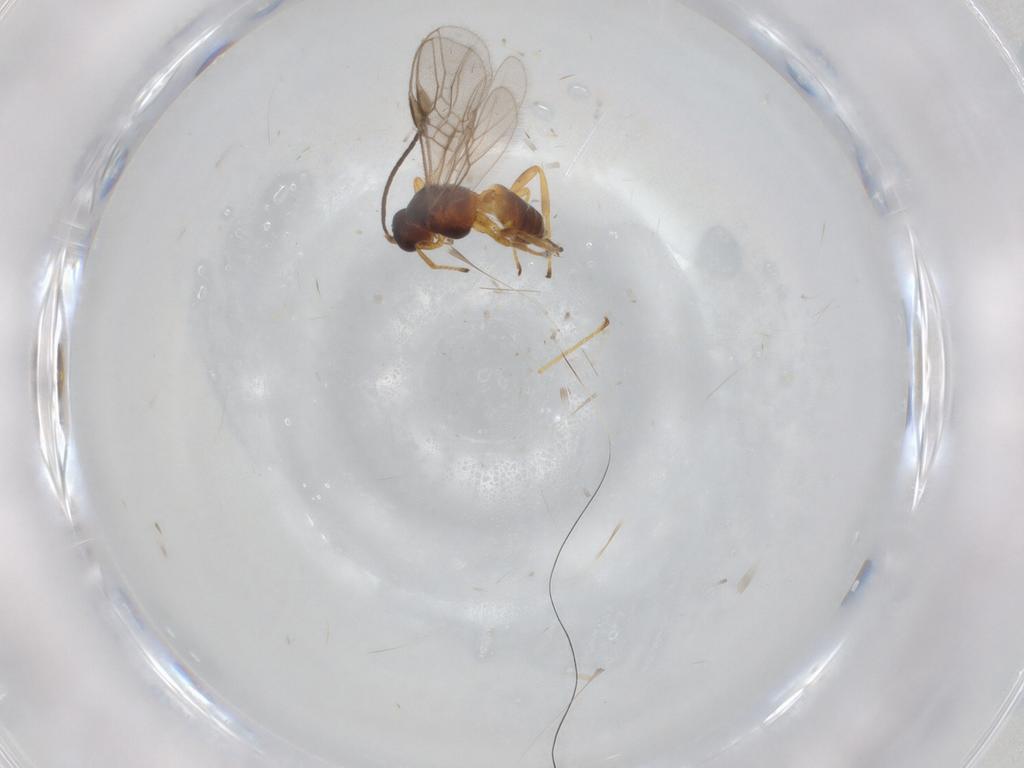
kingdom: Animalia
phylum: Arthropoda
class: Insecta
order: Hymenoptera
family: Braconidae
